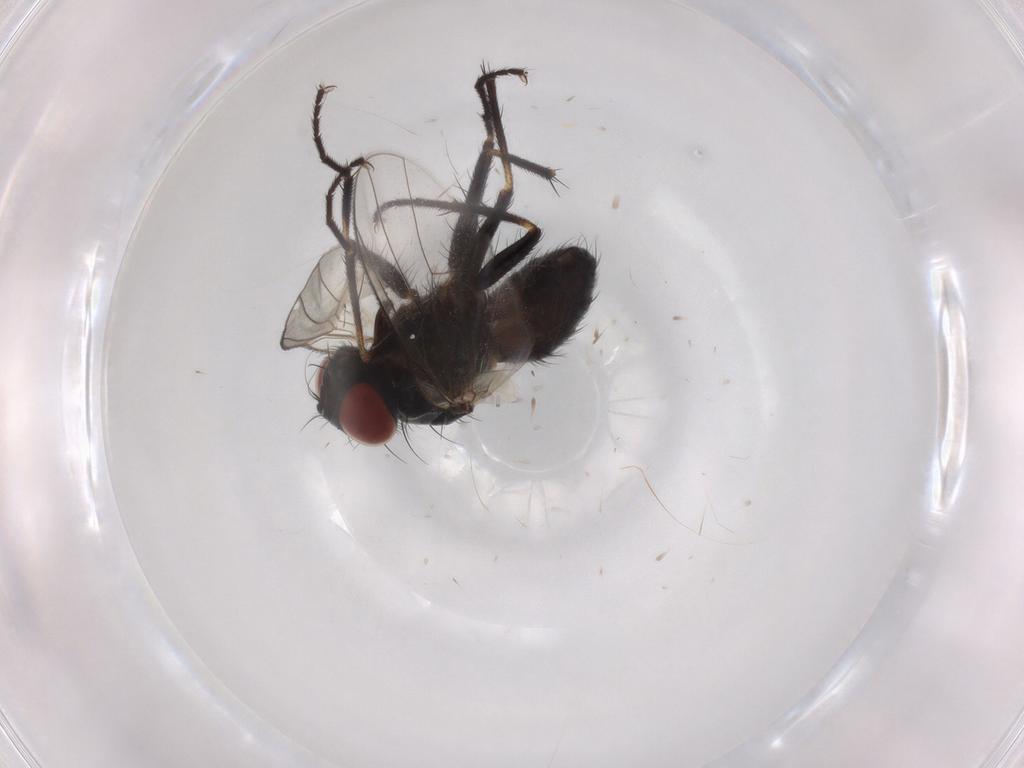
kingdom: Animalia
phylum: Arthropoda
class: Insecta
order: Diptera
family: Muscidae
